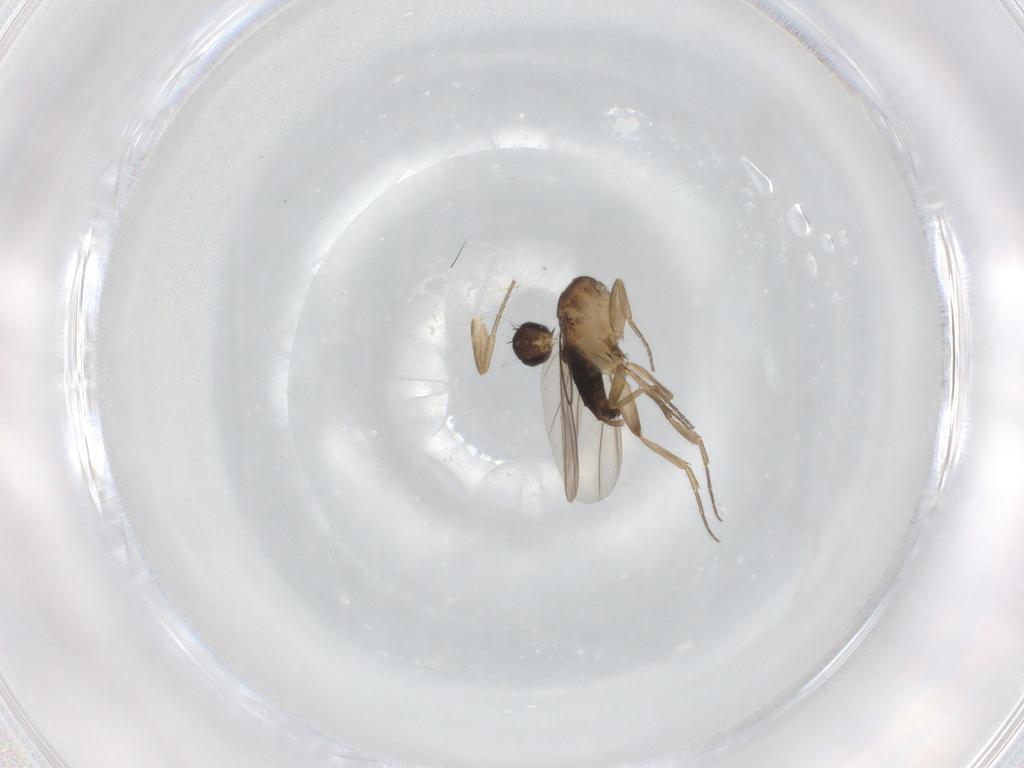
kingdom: Animalia
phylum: Arthropoda
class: Insecta
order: Diptera
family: Phoridae
